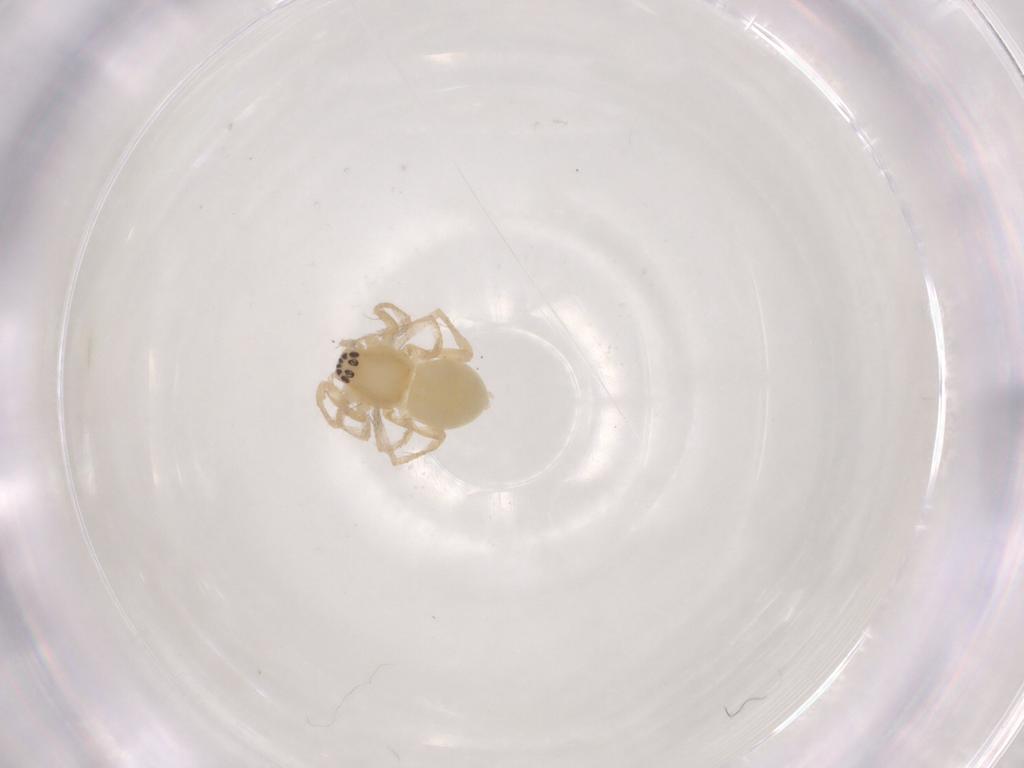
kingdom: Animalia
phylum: Arthropoda
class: Arachnida
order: Araneae
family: Anyphaenidae
